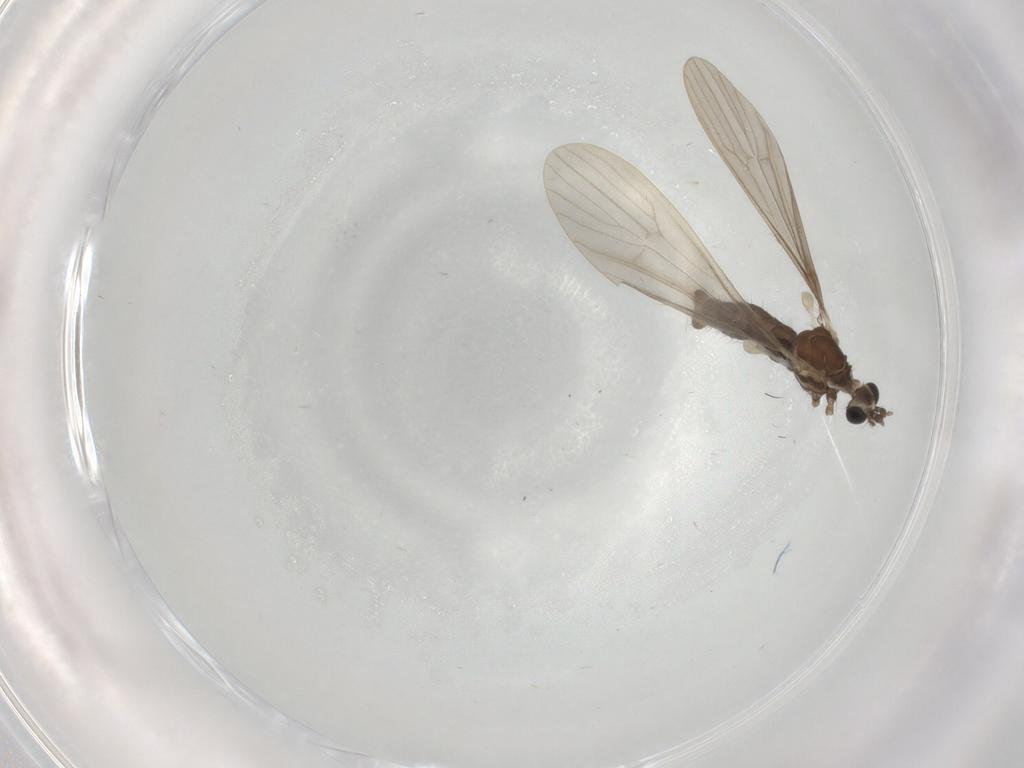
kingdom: Animalia
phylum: Arthropoda
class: Insecta
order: Diptera
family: Limoniidae
